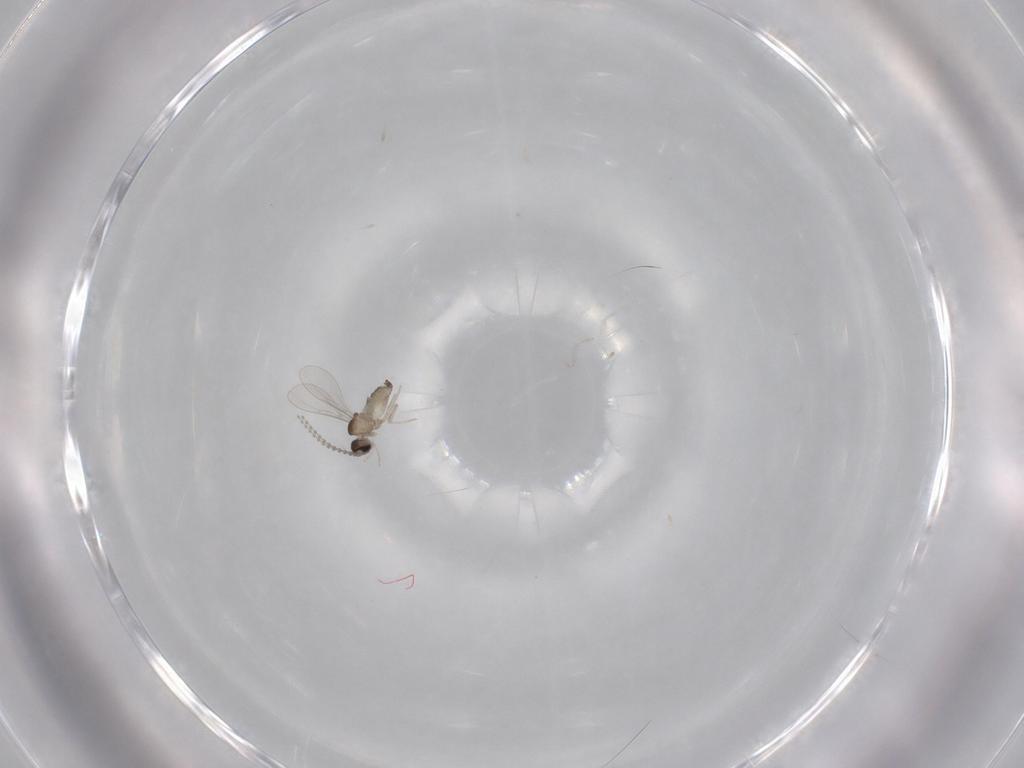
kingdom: Animalia
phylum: Arthropoda
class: Insecta
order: Diptera
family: Cecidomyiidae
